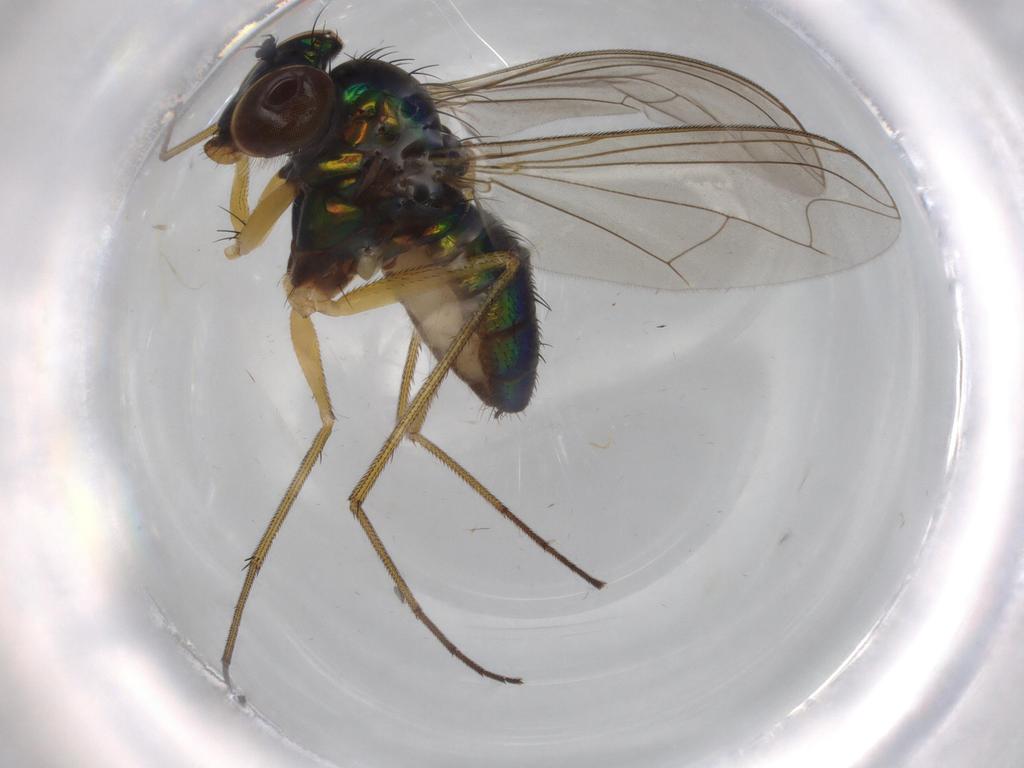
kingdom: Animalia
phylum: Arthropoda
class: Insecta
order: Diptera
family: Dolichopodidae
